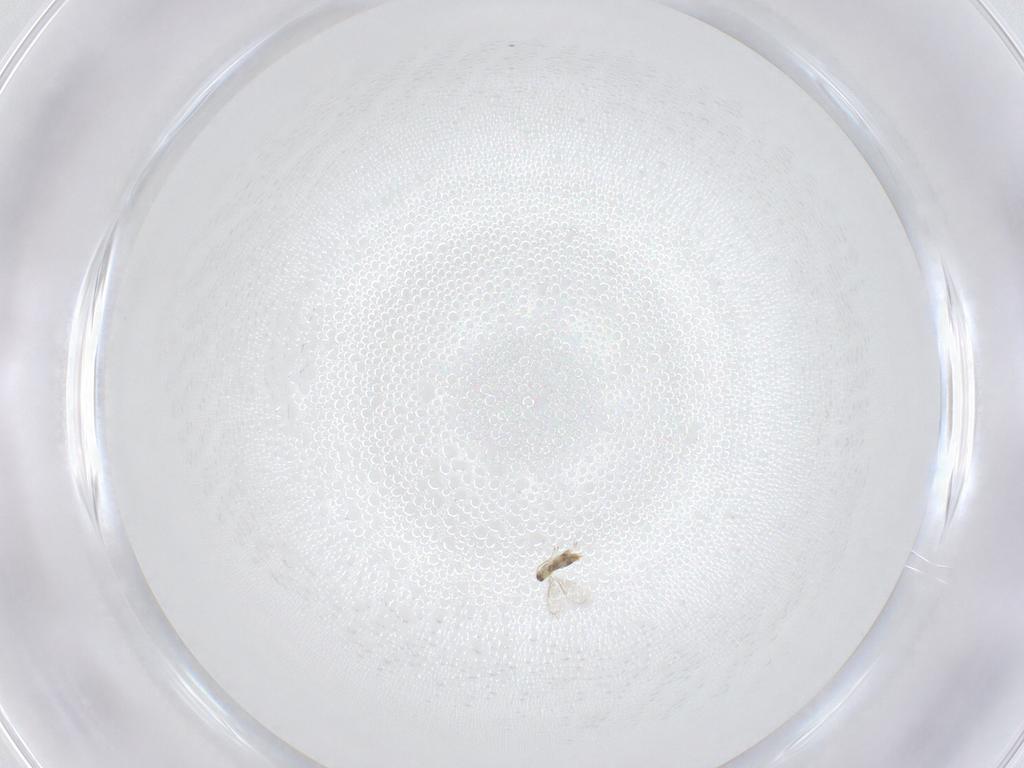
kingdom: Animalia
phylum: Arthropoda
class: Insecta
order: Hymenoptera
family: Aphelinidae
